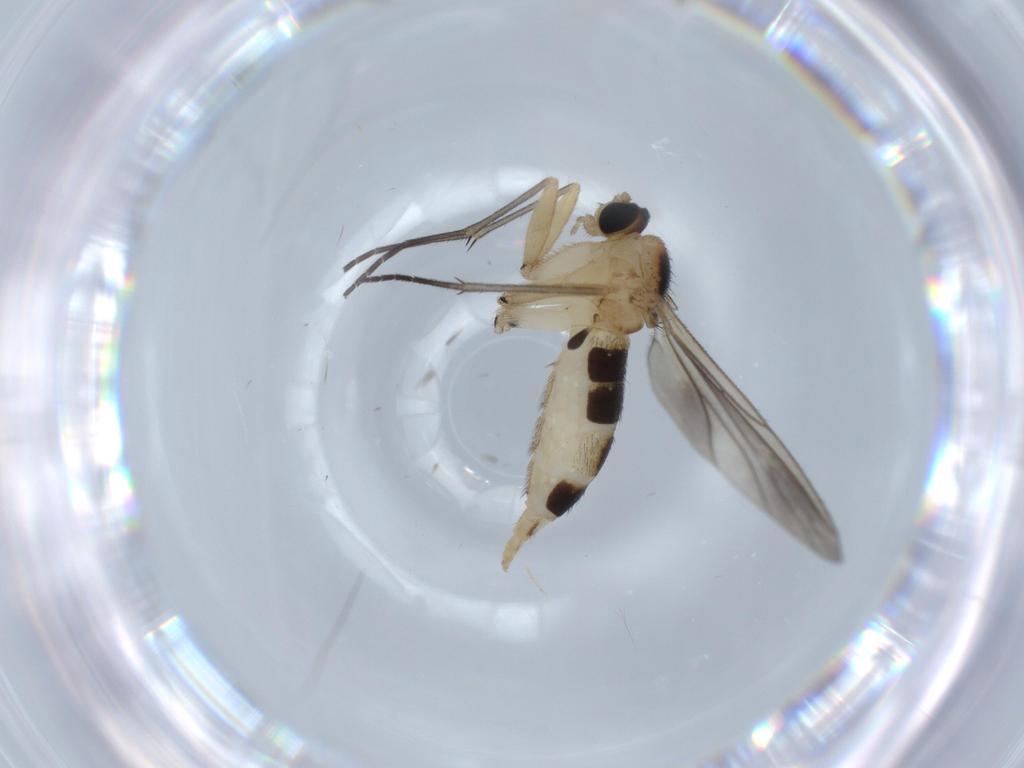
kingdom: Animalia
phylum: Arthropoda
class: Insecta
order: Diptera
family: Sciaridae
